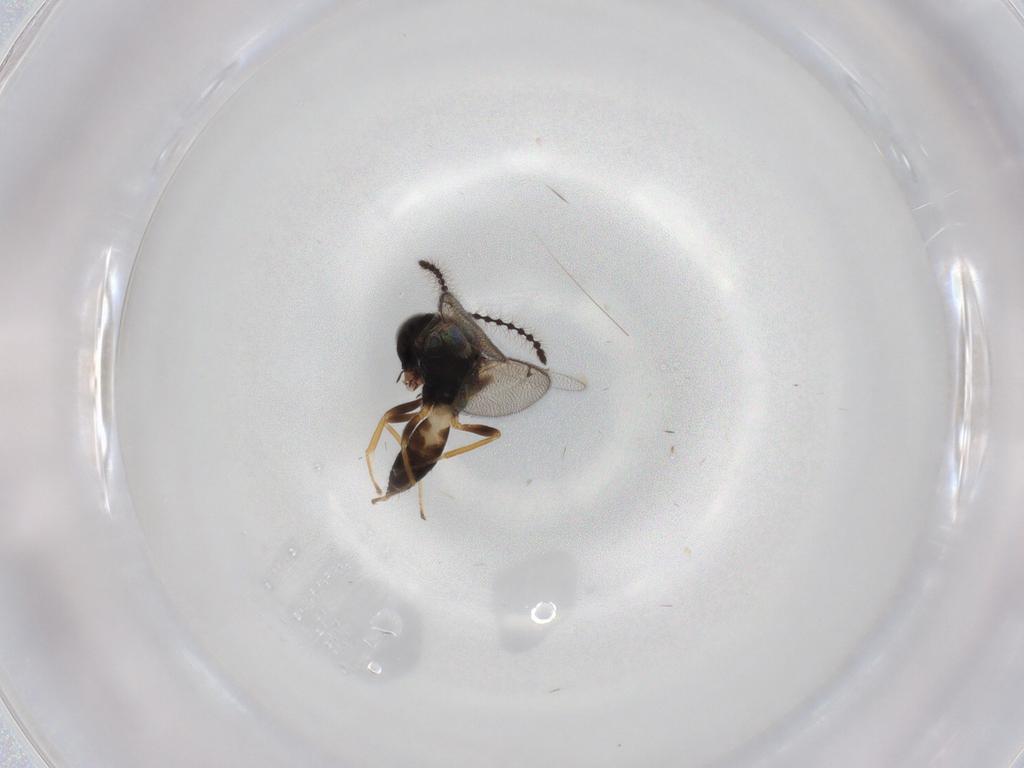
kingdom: Animalia
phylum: Arthropoda
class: Insecta
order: Hymenoptera
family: Pteromalidae
